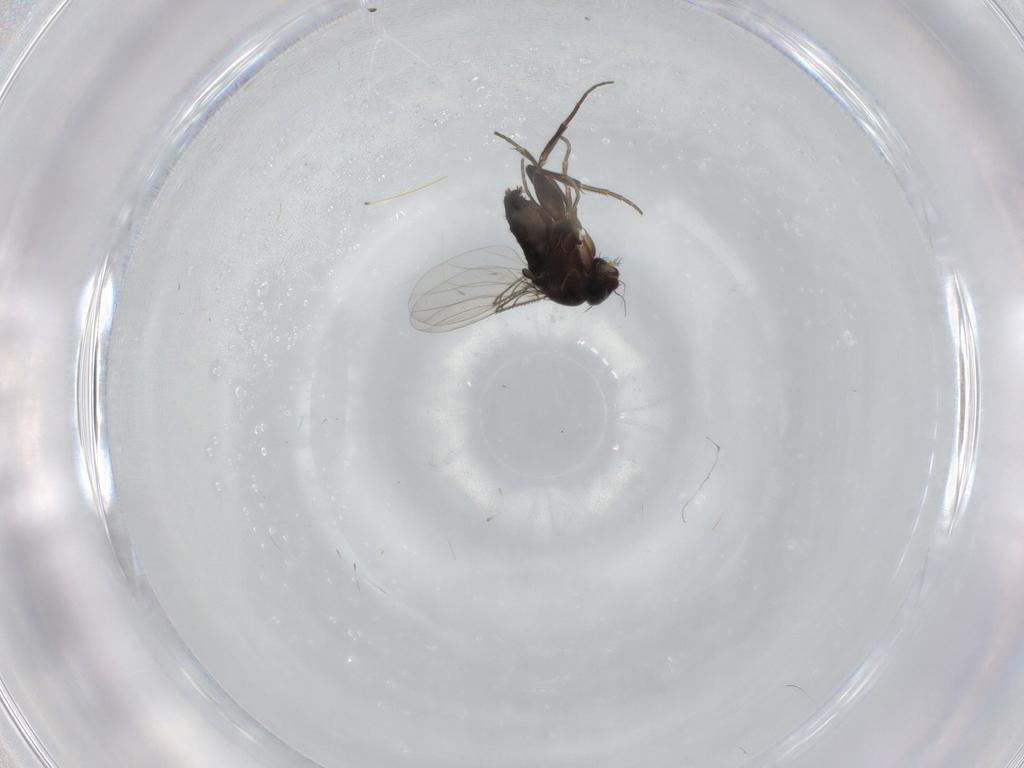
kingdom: Animalia
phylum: Arthropoda
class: Insecta
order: Diptera
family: Phoridae
